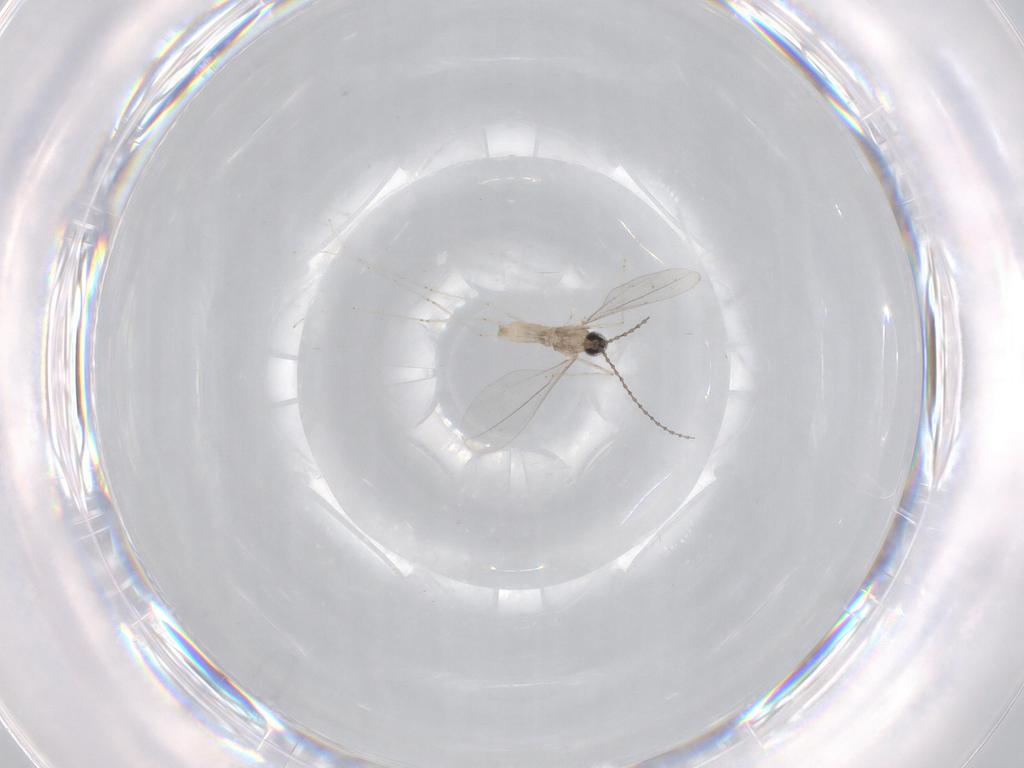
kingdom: Animalia
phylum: Arthropoda
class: Insecta
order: Diptera
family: Cecidomyiidae
